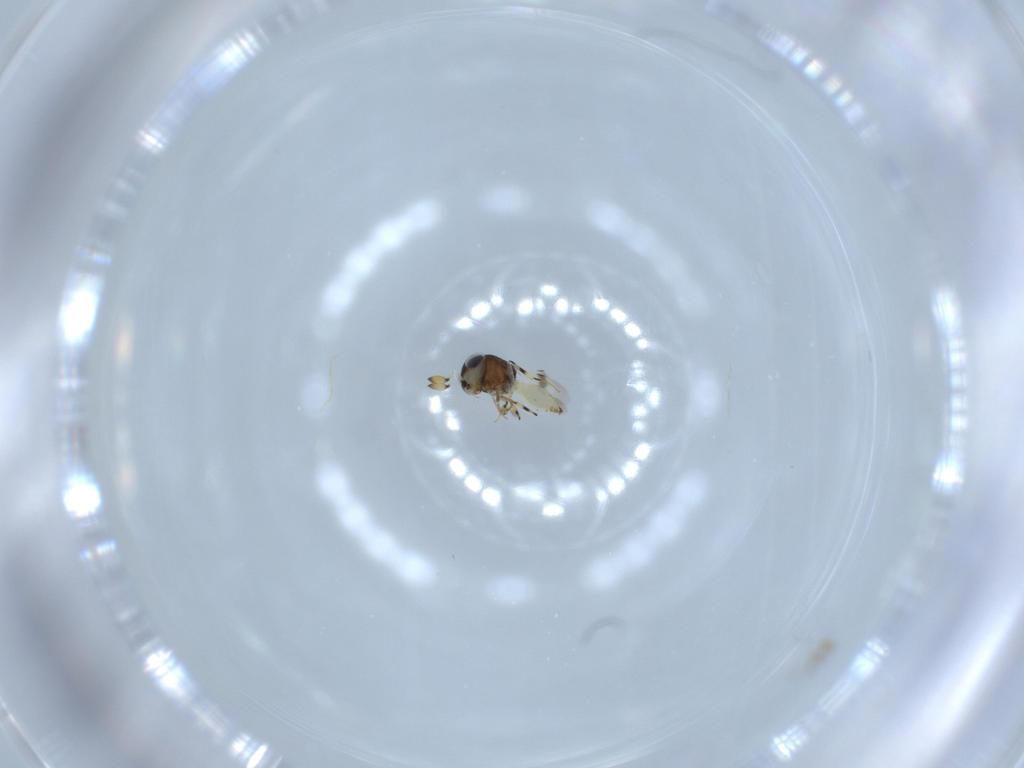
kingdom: Animalia
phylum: Arthropoda
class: Insecta
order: Hymenoptera
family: Scelionidae
